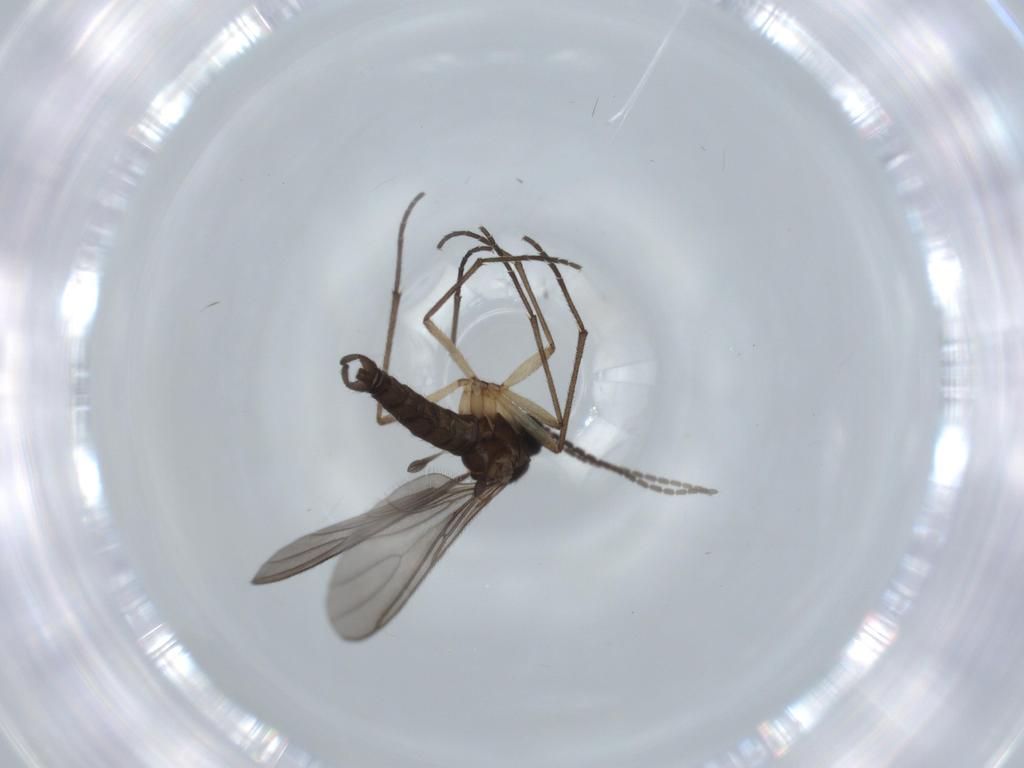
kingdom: Animalia
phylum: Arthropoda
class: Insecta
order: Diptera
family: Sciaridae
